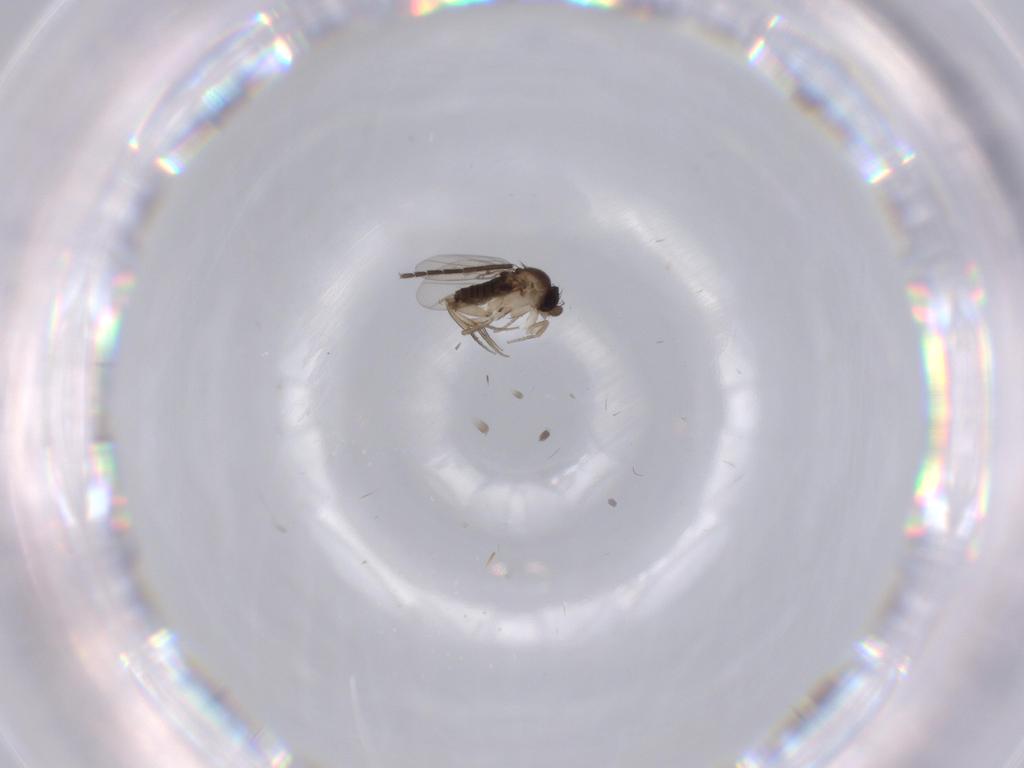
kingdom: Animalia
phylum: Arthropoda
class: Insecta
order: Diptera
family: Phoridae
